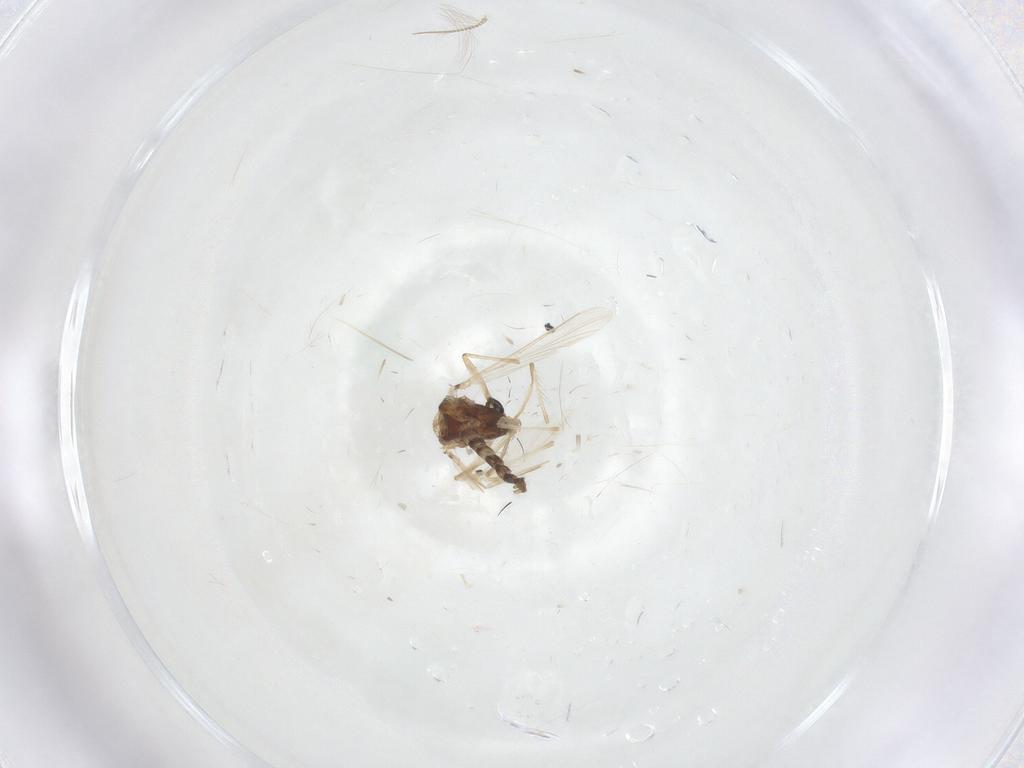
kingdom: Animalia
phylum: Arthropoda
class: Insecta
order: Diptera
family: Chironomidae
